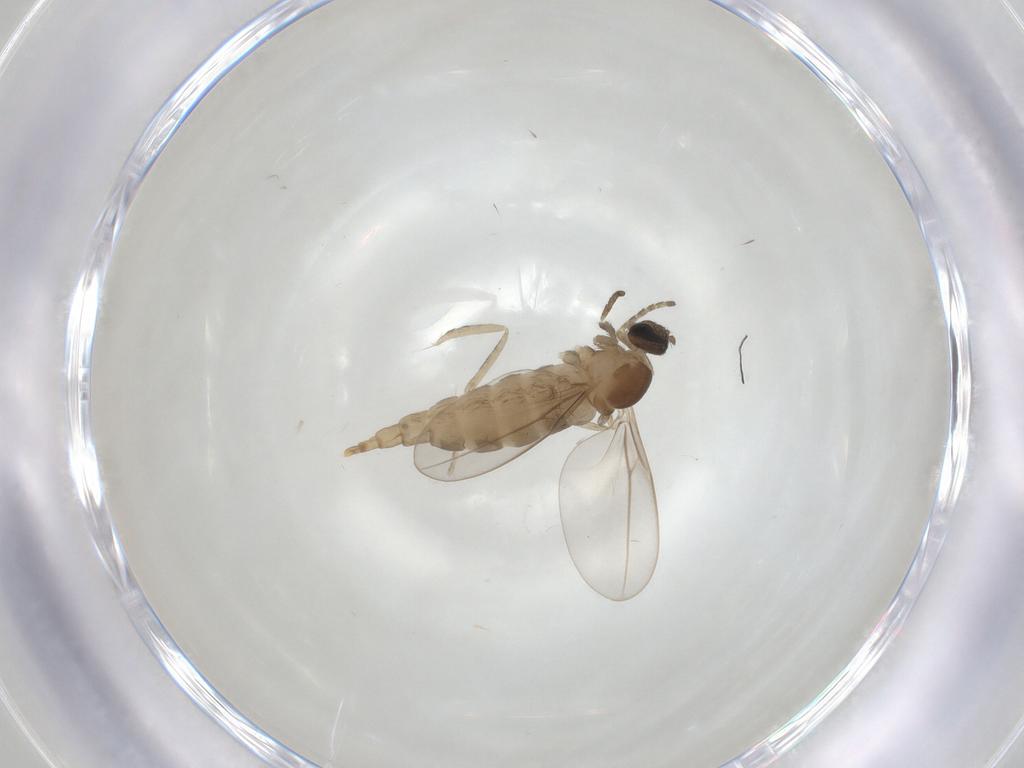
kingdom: Animalia
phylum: Arthropoda
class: Insecta
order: Diptera
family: Cecidomyiidae
